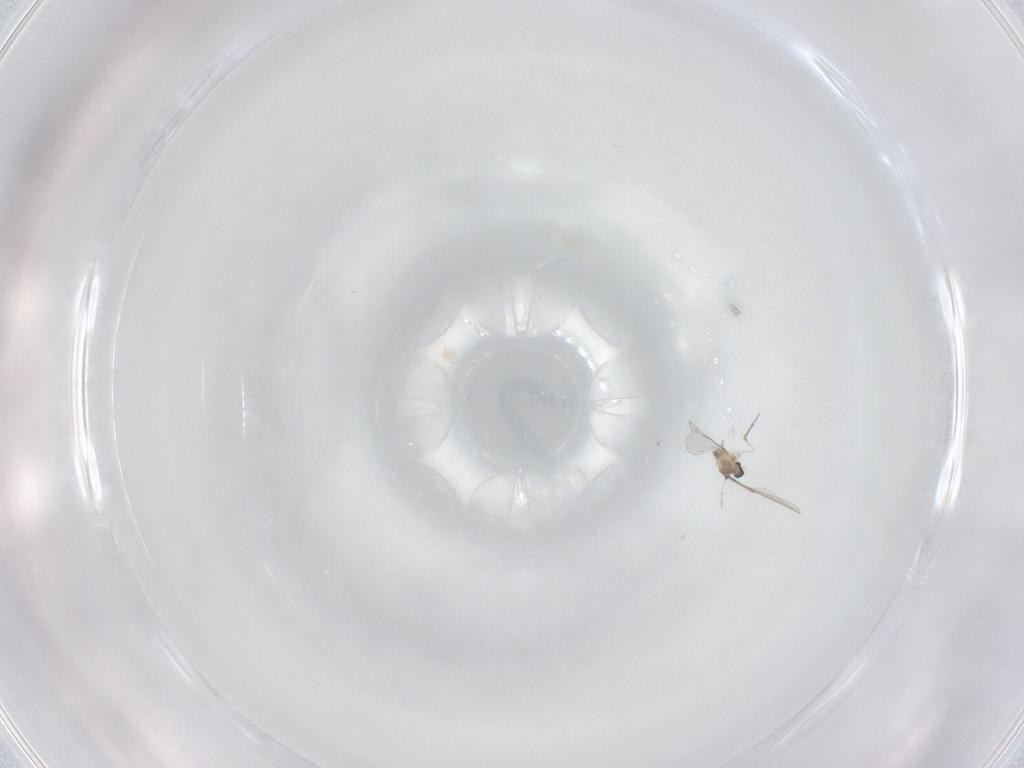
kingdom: Animalia
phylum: Arthropoda
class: Insecta
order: Diptera
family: Cecidomyiidae
